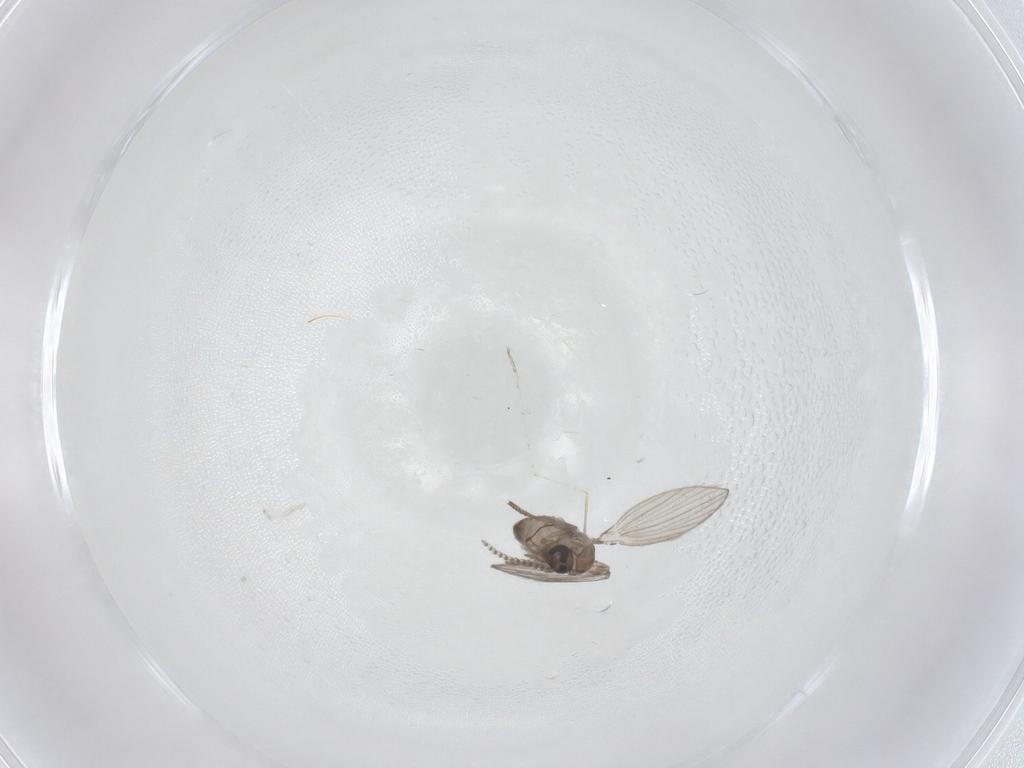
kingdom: Animalia
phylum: Arthropoda
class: Insecta
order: Diptera
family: Psychodidae
